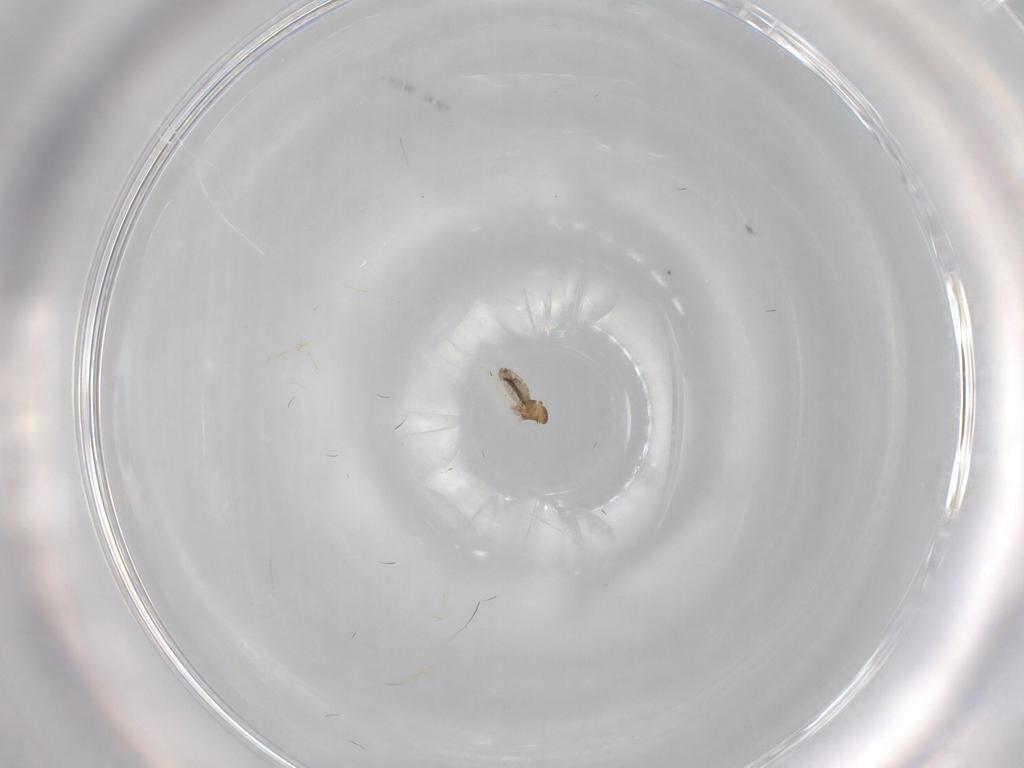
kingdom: Animalia
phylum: Arthropoda
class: Insecta
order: Diptera
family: Cecidomyiidae
